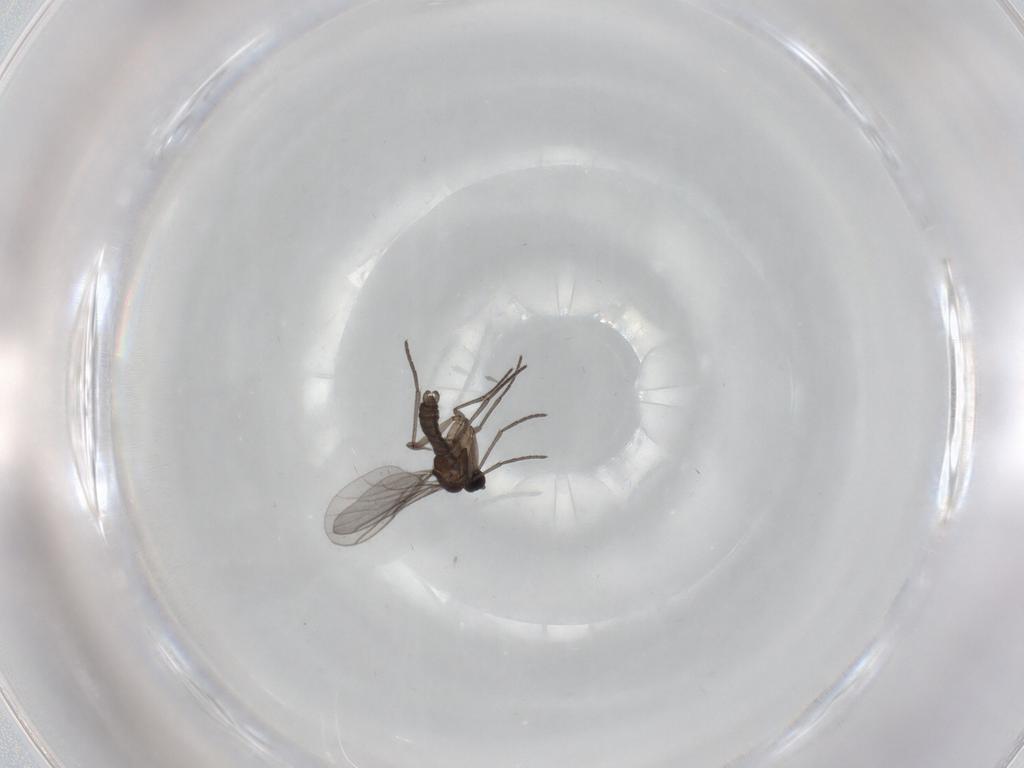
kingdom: Animalia
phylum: Arthropoda
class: Insecta
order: Diptera
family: Cecidomyiidae
